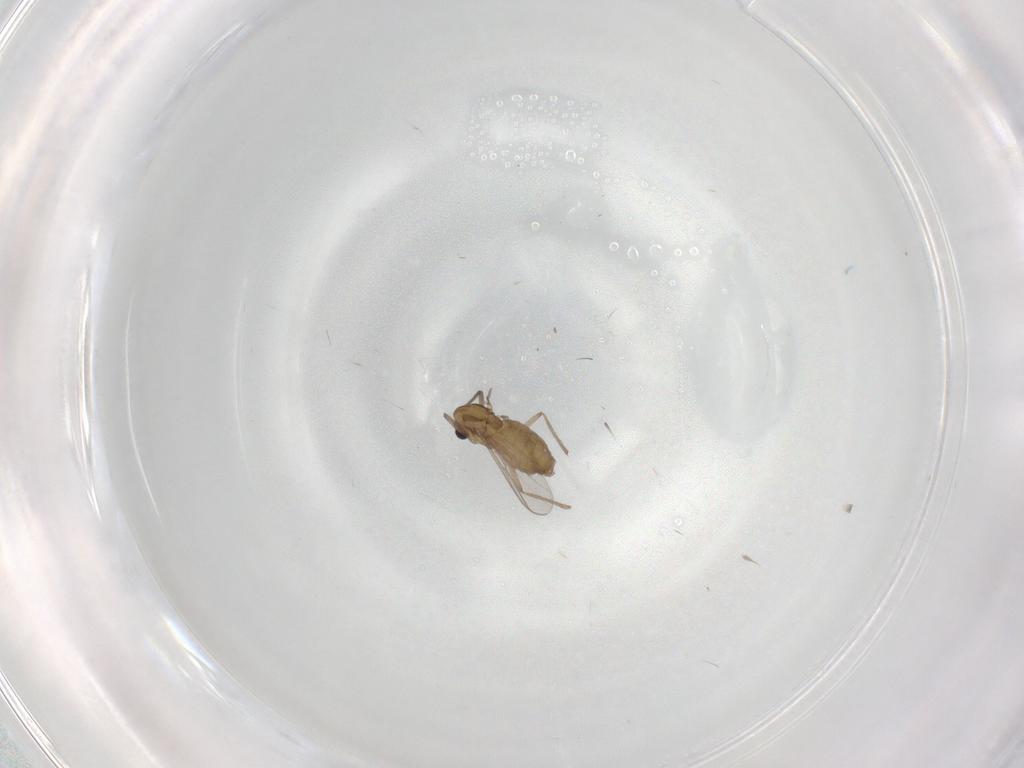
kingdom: Animalia
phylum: Arthropoda
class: Insecta
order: Diptera
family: Chironomidae
